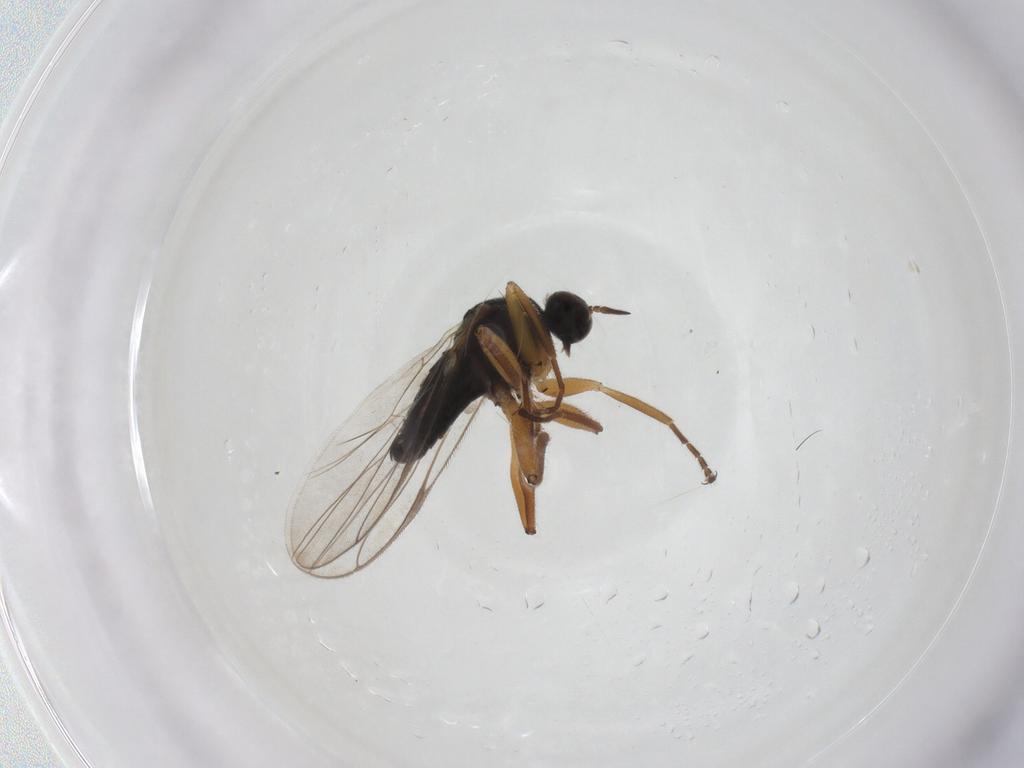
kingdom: Animalia
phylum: Arthropoda
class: Insecta
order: Diptera
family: Hybotidae
